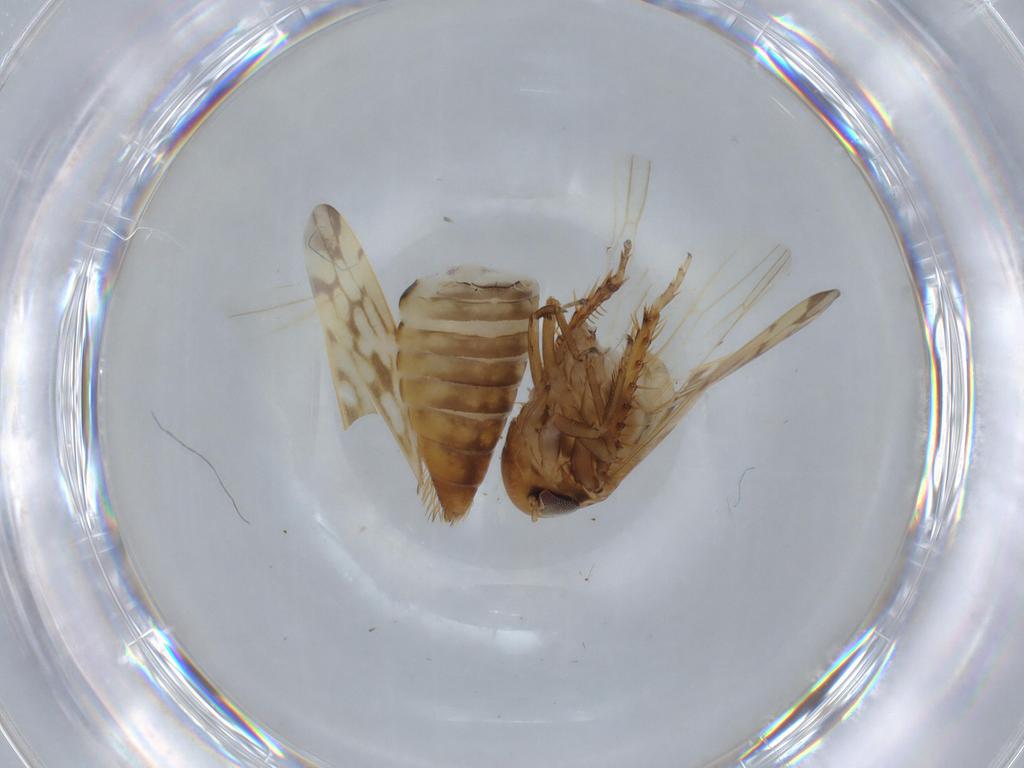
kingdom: Animalia
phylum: Arthropoda
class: Insecta
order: Hemiptera
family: Cicadellidae
